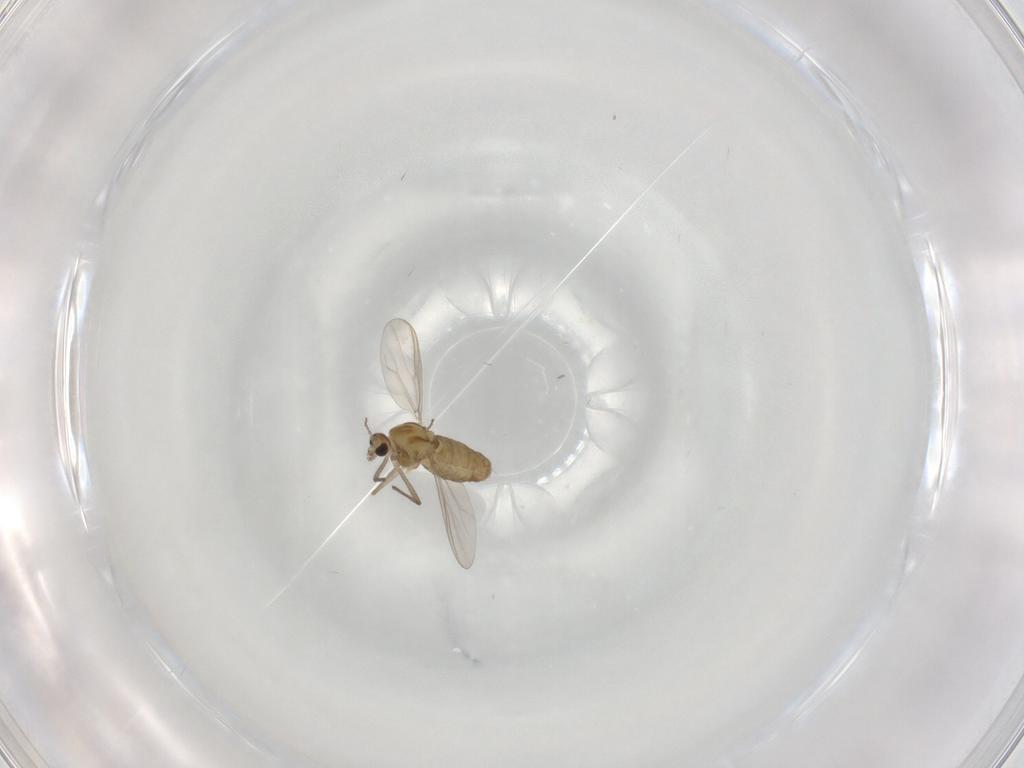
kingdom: Animalia
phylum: Arthropoda
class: Insecta
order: Diptera
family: Chironomidae
